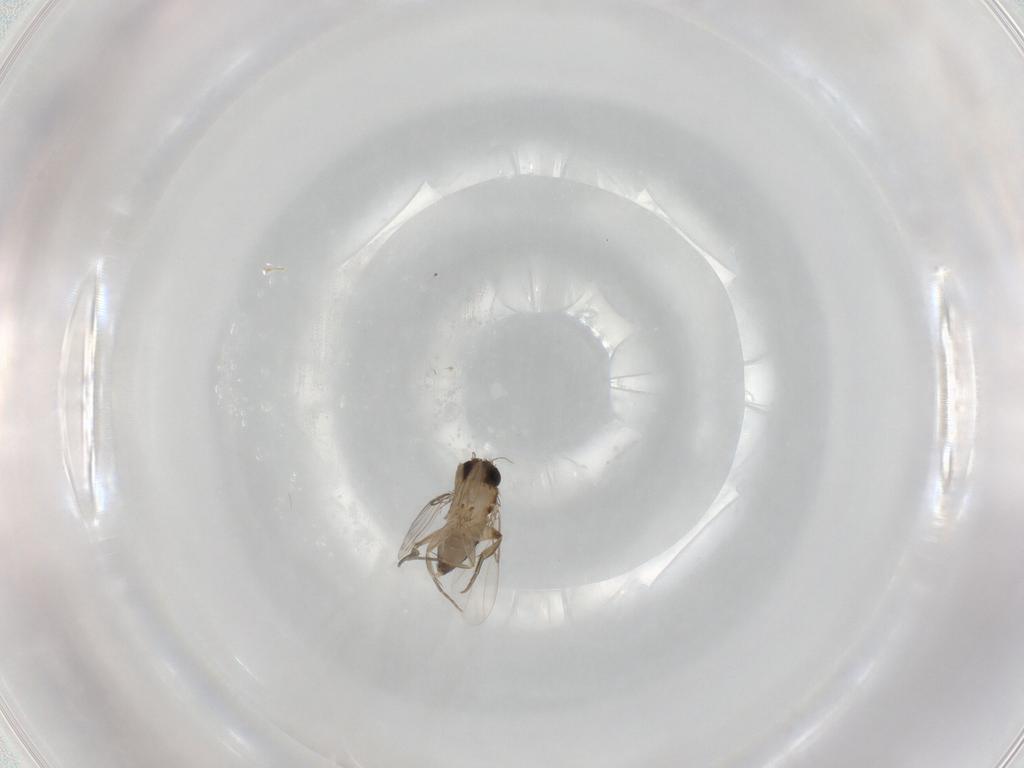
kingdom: Animalia
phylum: Arthropoda
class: Insecta
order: Diptera
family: Phoridae
